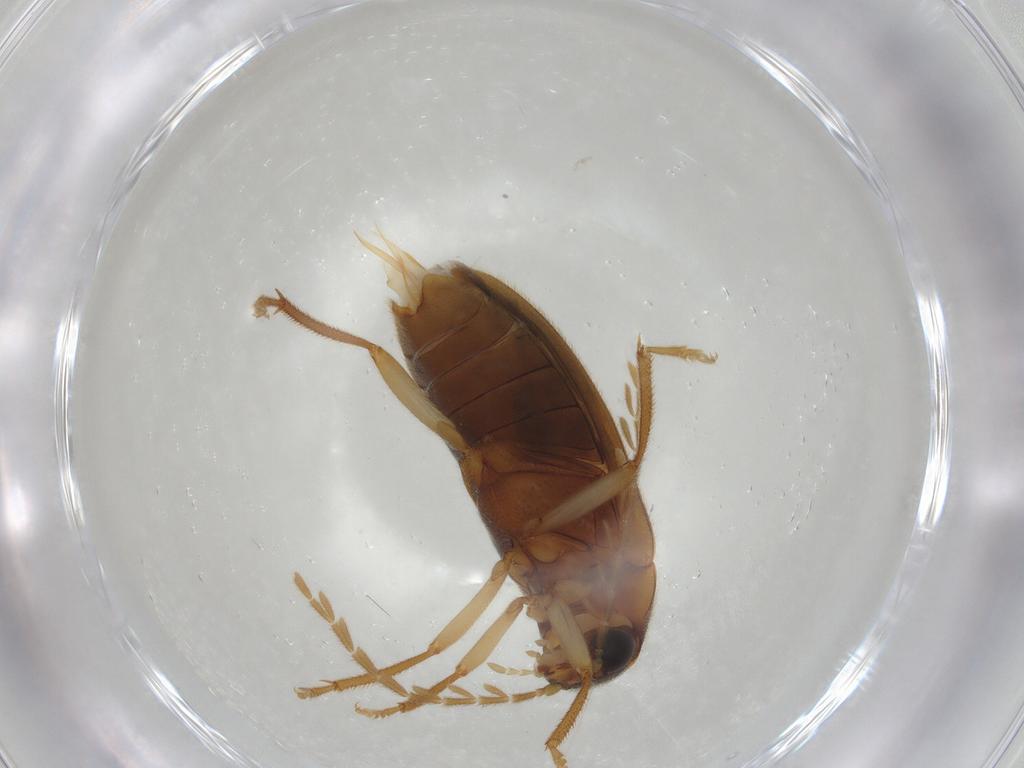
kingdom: Animalia
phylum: Arthropoda
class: Insecta
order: Coleoptera
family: Ptilodactylidae
